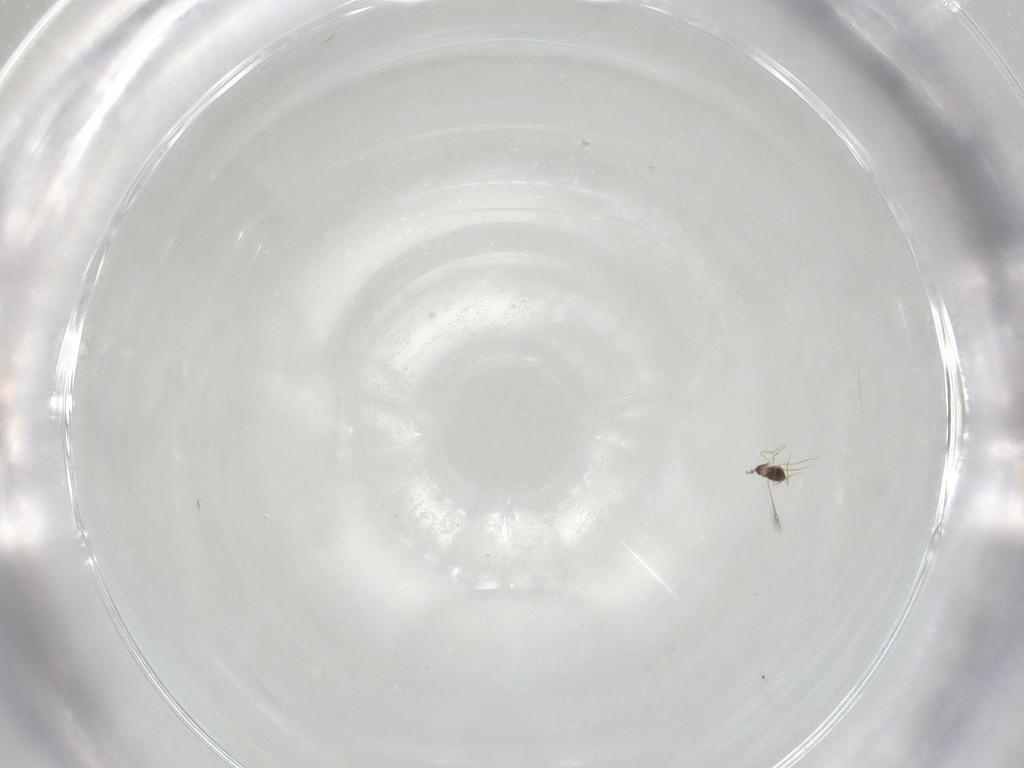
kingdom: Animalia
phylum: Arthropoda
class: Insecta
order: Hymenoptera
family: Mymaridae
